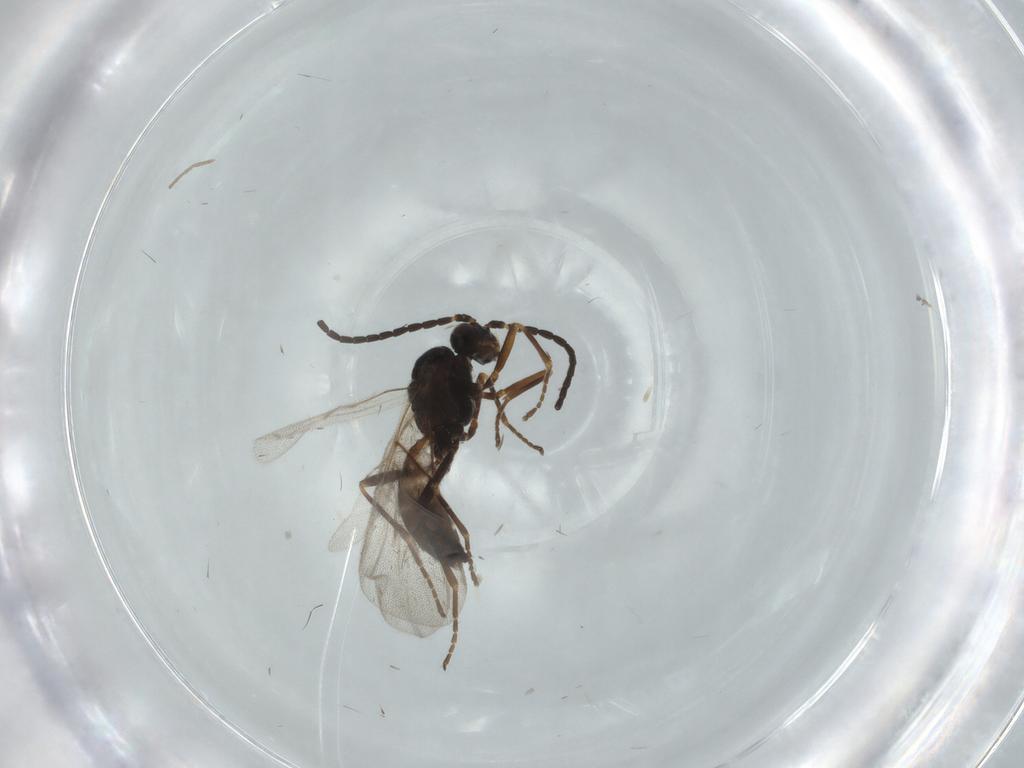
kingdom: Animalia
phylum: Arthropoda
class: Insecta
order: Hymenoptera
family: Braconidae
